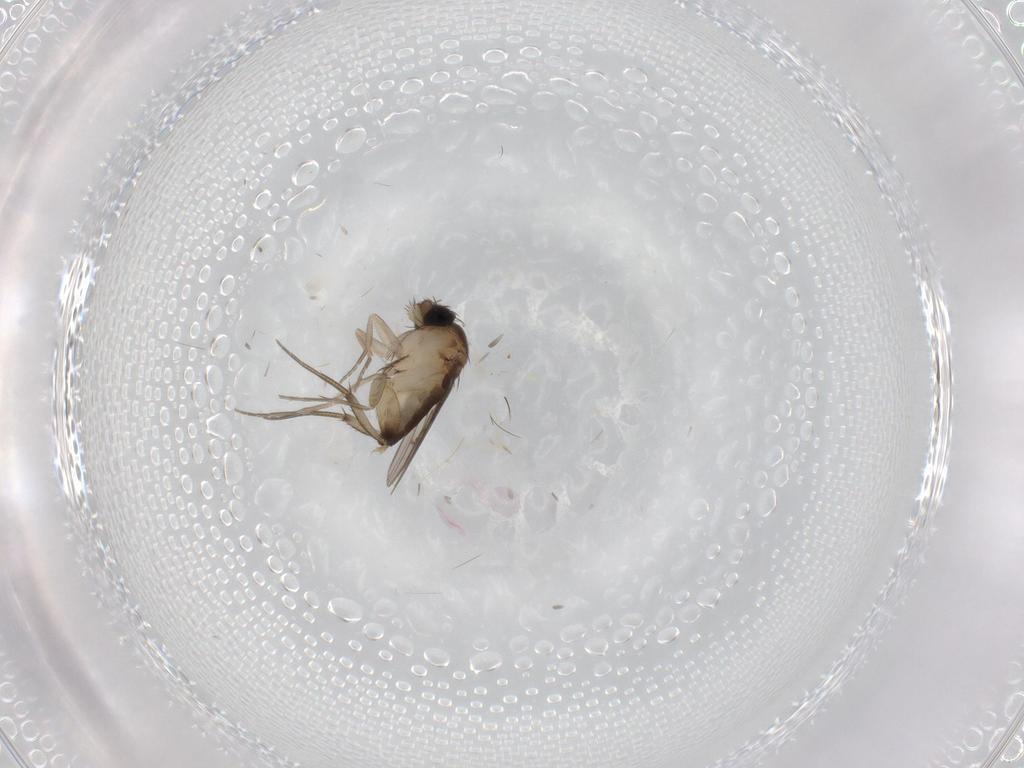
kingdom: Animalia
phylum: Arthropoda
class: Insecta
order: Diptera
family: Phoridae
